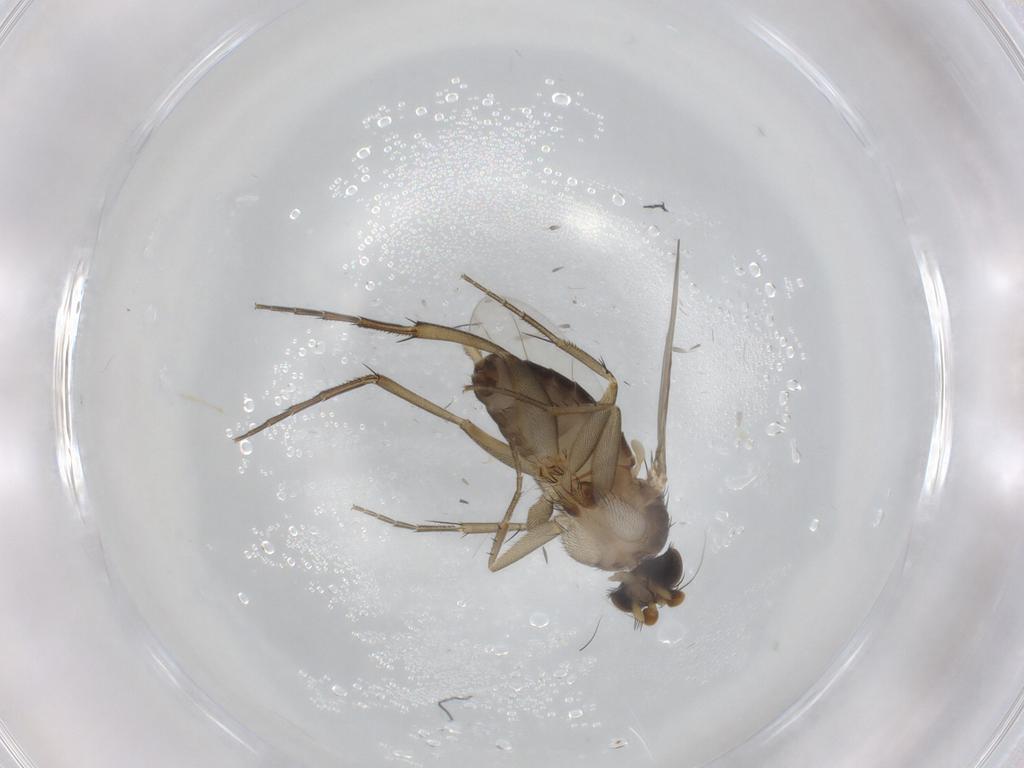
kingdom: Animalia
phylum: Arthropoda
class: Insecta
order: Diptera
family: Phoridae
